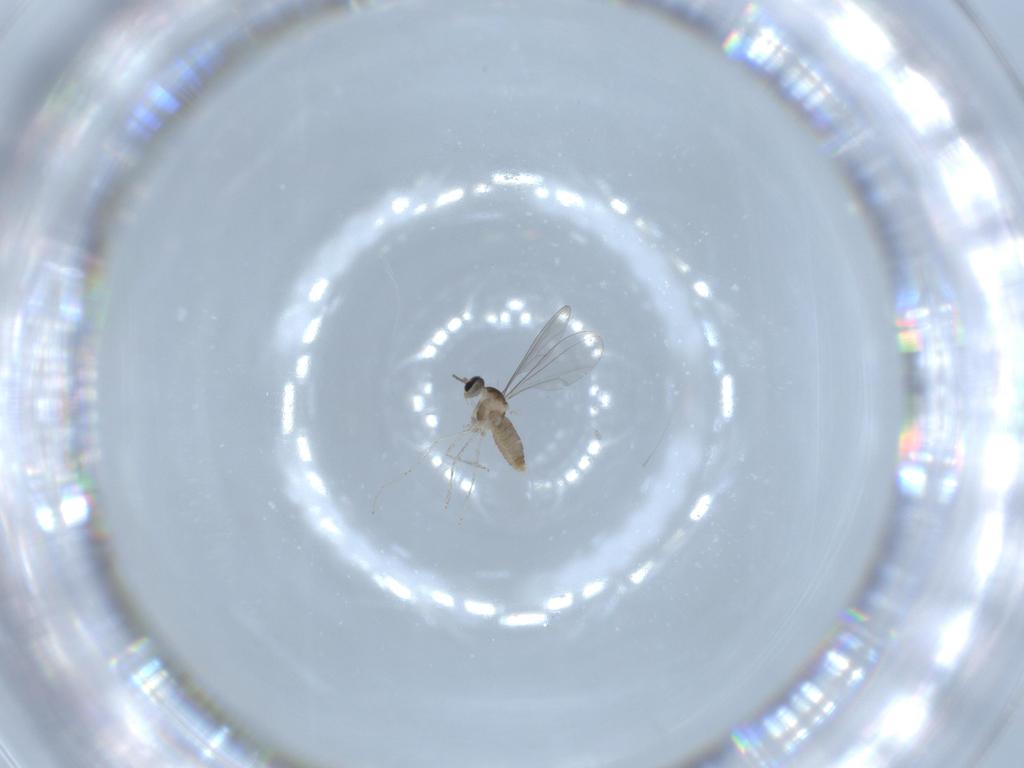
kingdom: Animalia
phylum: Arthropoda
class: Insecta
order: Diptera
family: Cecidomyiidae
